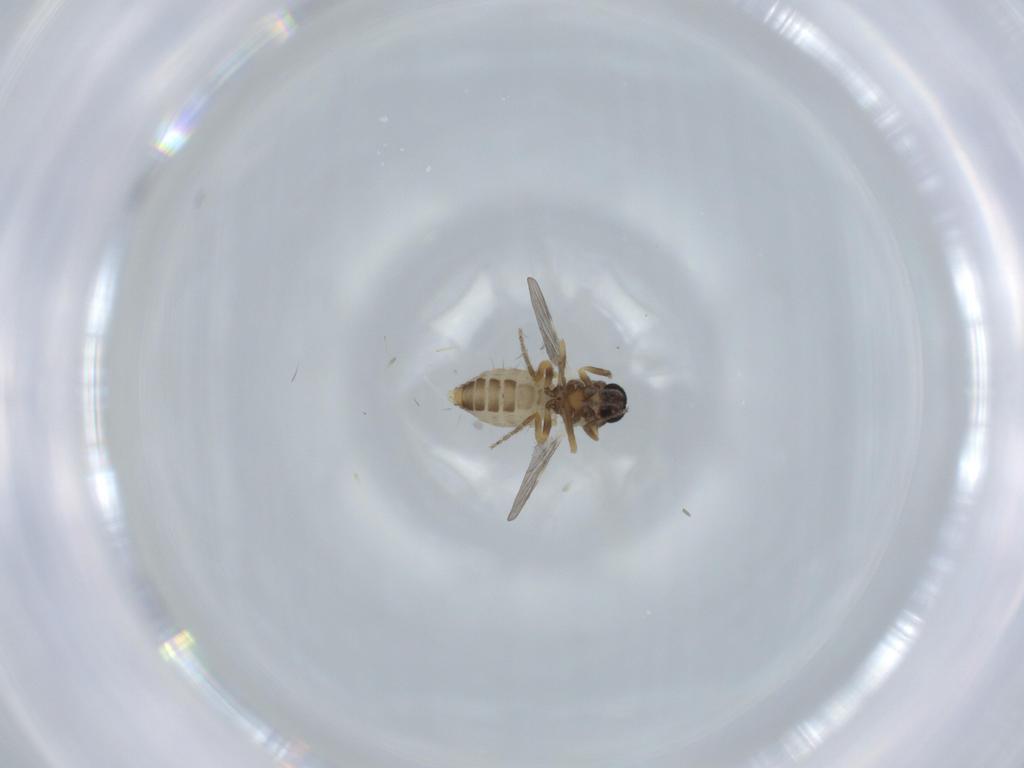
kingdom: Animalia
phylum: Arthropoda
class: Insecta
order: Diptera
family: Ceratopogonidae
